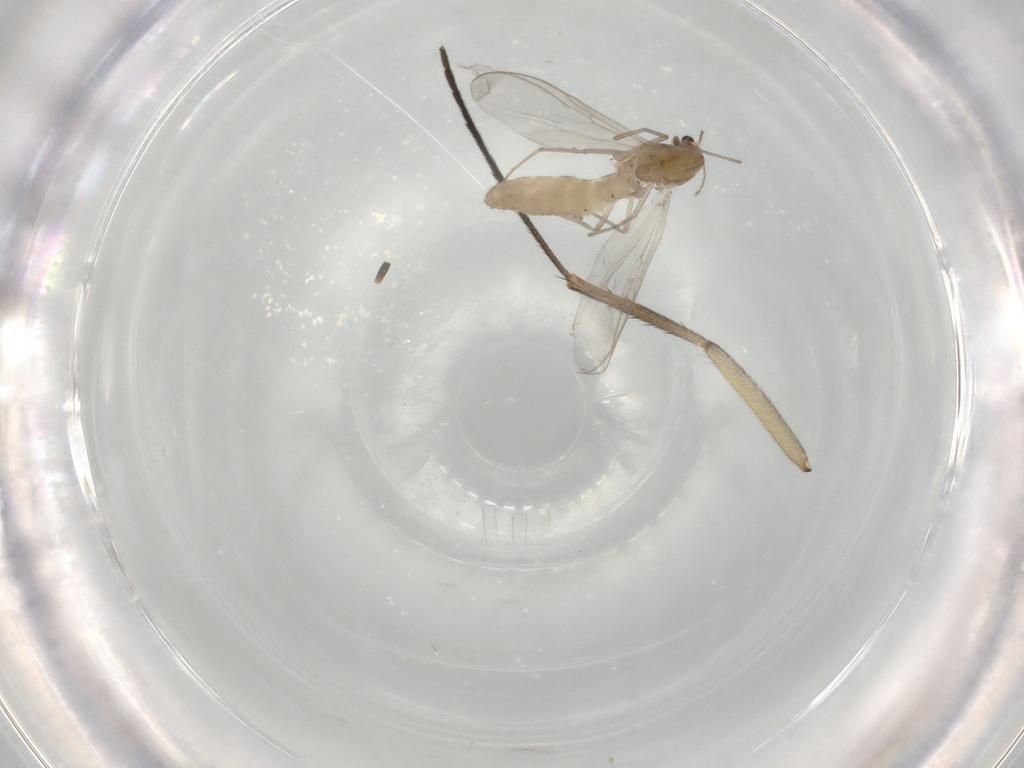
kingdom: Animalia
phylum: Arthropoda
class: Insecta
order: Diptera
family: Chironomidae
